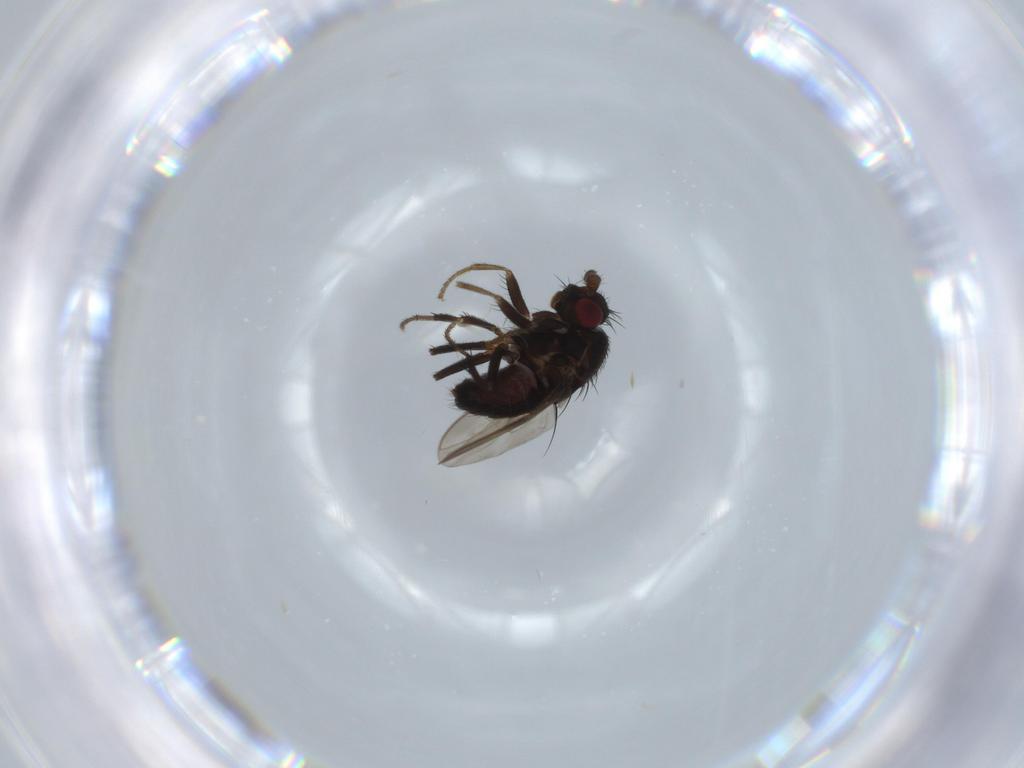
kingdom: Animalia
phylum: Arthropoda
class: Insecta
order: Diptera
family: Sphaeroceridae
